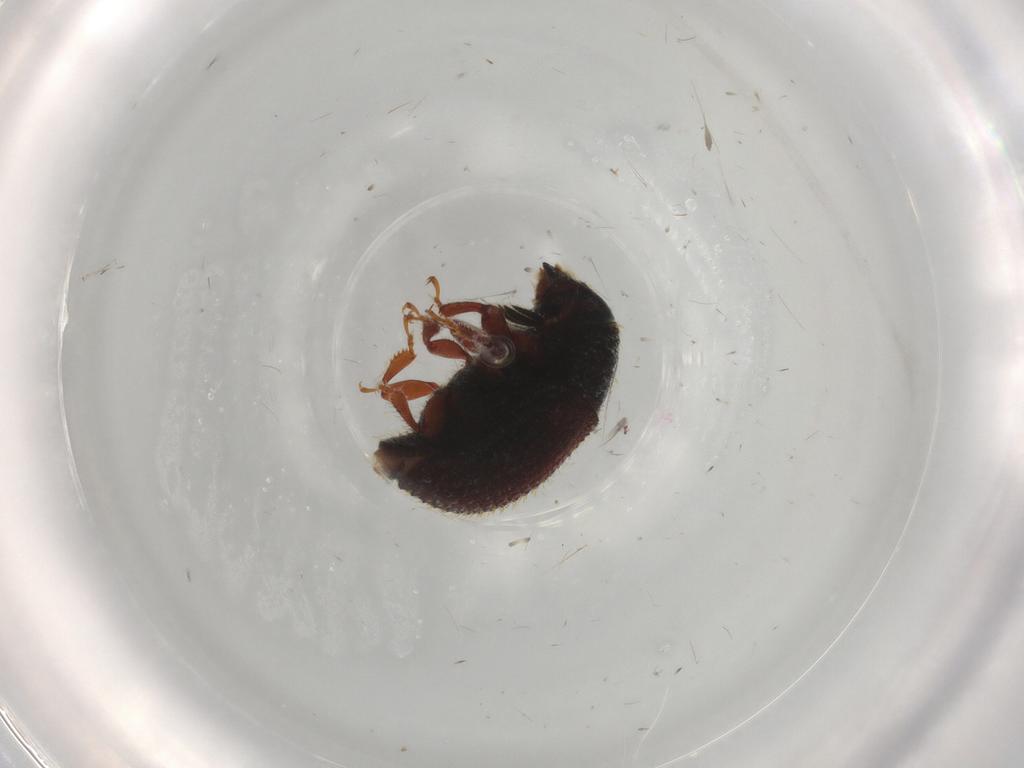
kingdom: Animalia
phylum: Arthropoda
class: Insecta
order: Coleoptera
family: Curculionidae
